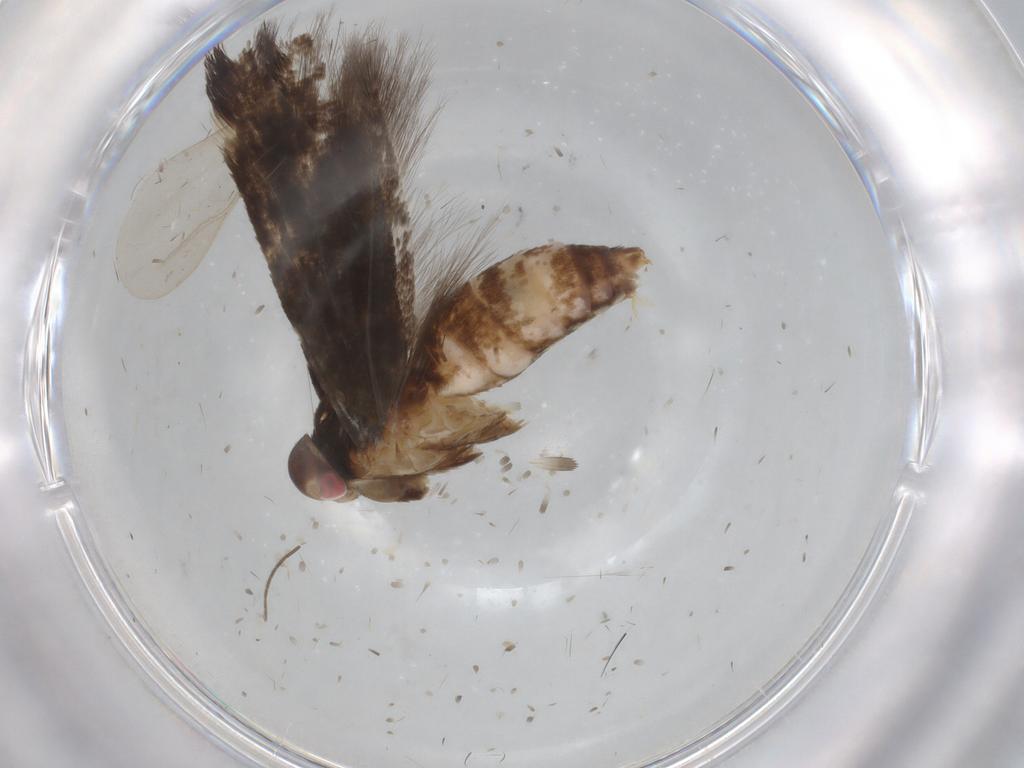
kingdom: Animalia
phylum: Arthropoda
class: Insecta
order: Lepidoptera
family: Cosmopterigidae
